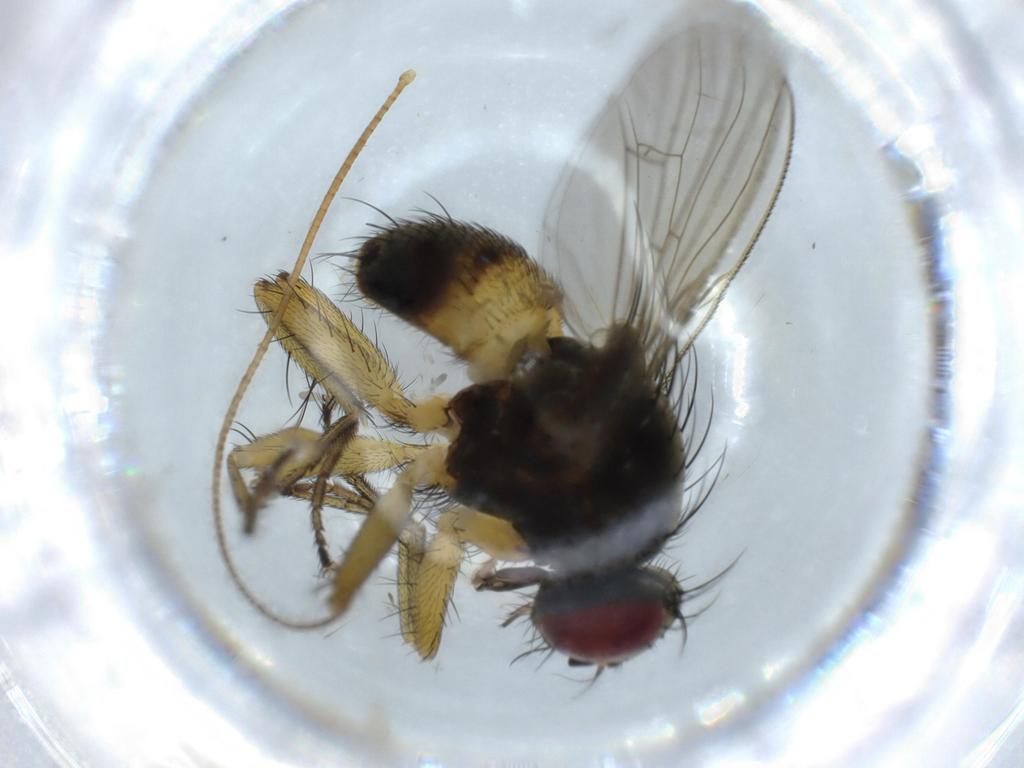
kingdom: Animalia
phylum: Arthropoda
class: Insecta
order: Diptera
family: Muscidae
